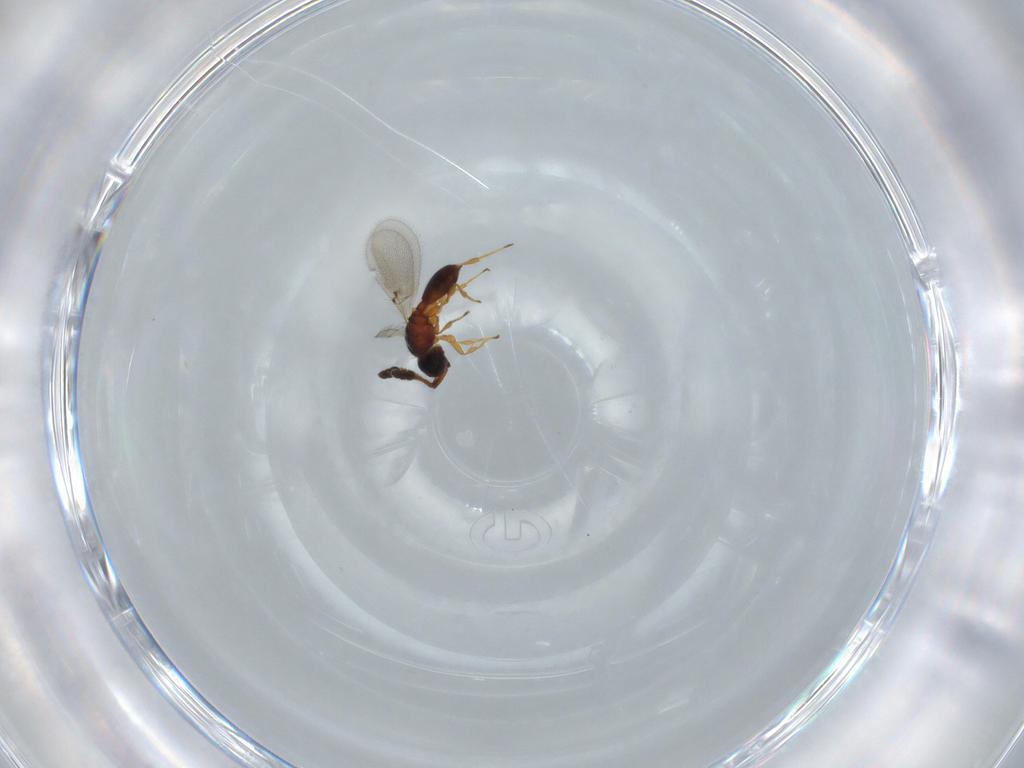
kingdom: Animalia
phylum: Arthropoda
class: Insecta
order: Hymenoptera
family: Diapriidae
